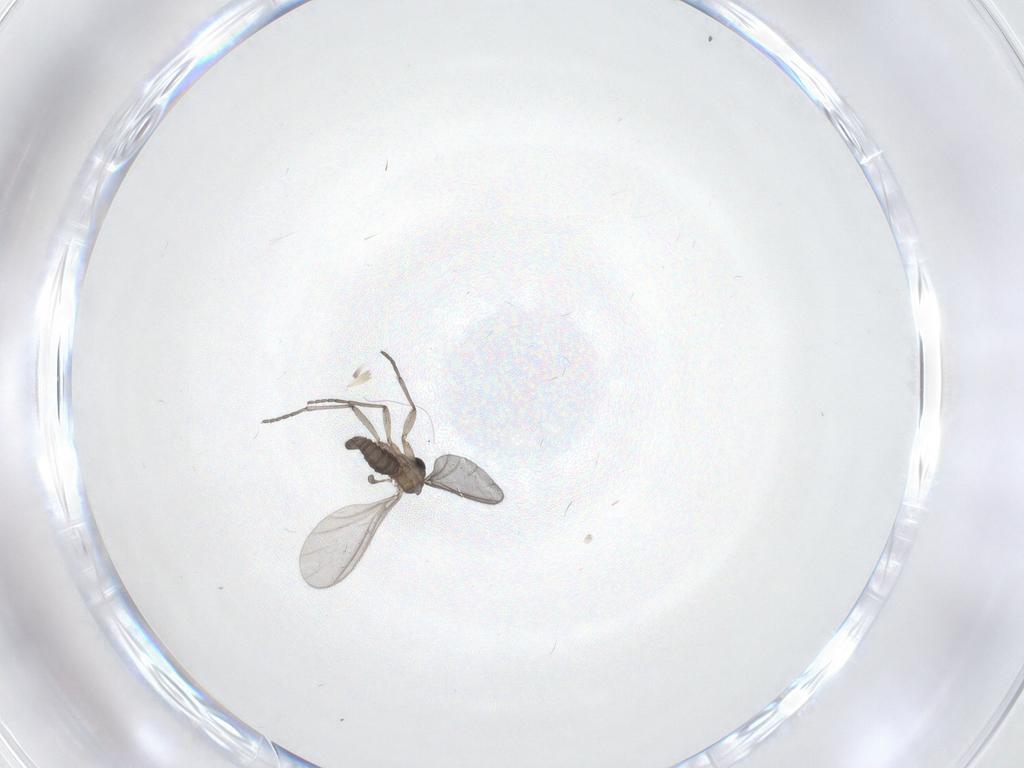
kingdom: Animalia
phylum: Arthropoda
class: Insecta
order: Diptera
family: Sciaridae
